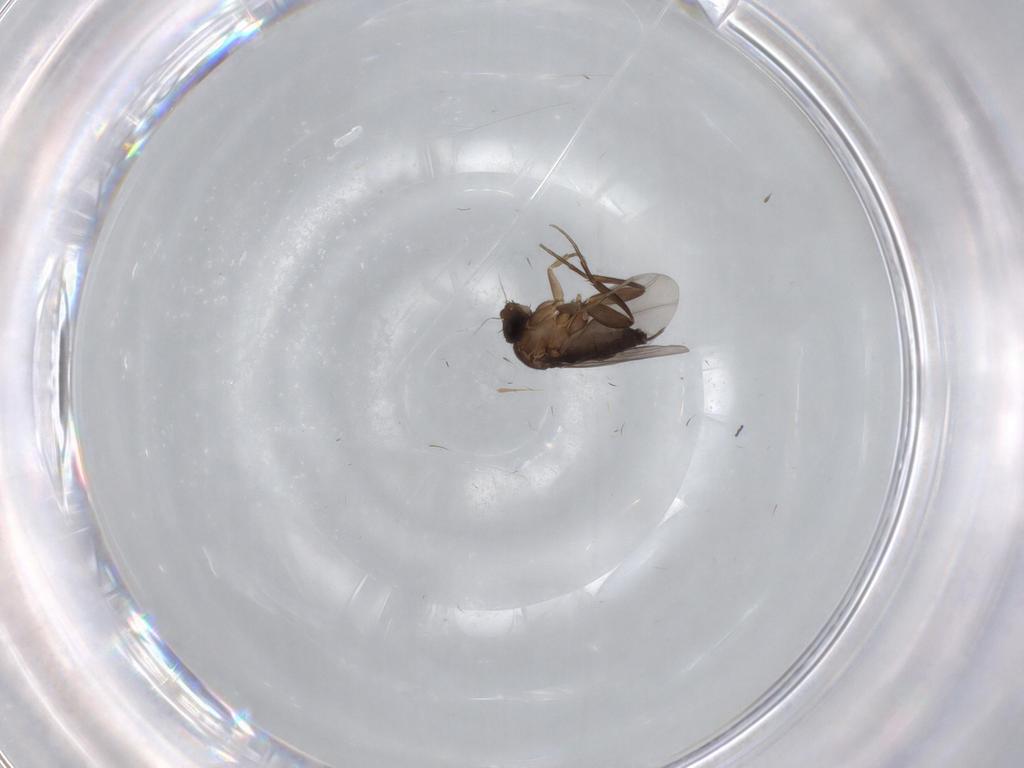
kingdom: Animalia
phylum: Arthropoda
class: Insecta
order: Diptera
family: Phoridae
